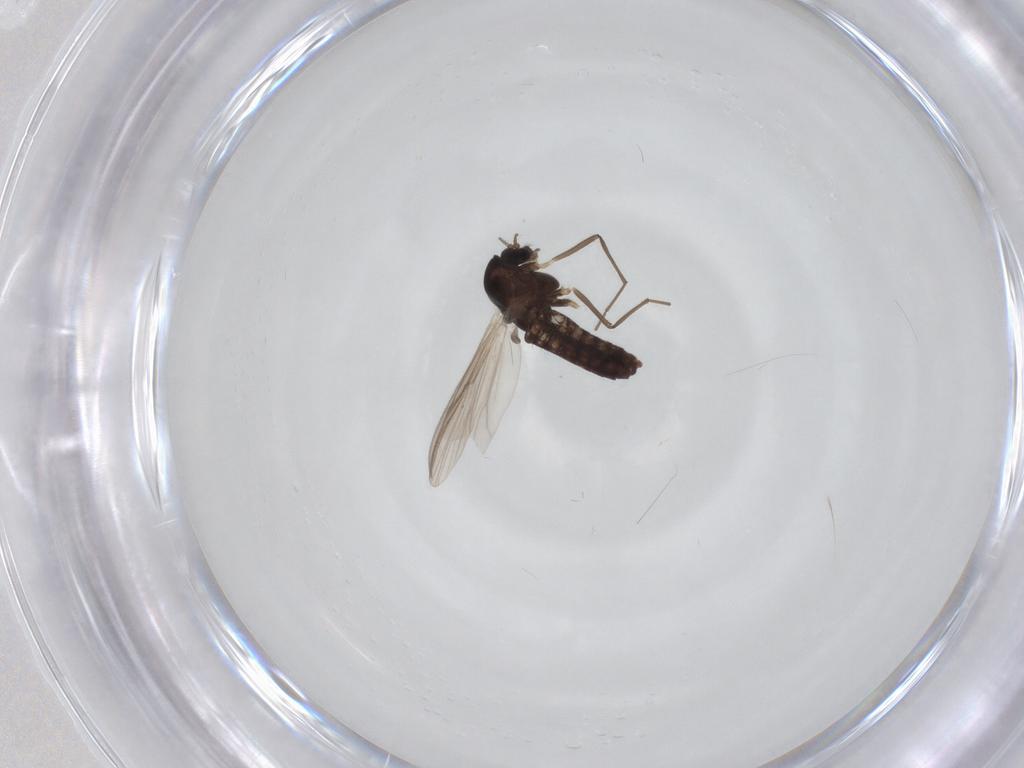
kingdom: Animalia
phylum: Arthropoda
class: Insecta
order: Diptera
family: Chironomidae
